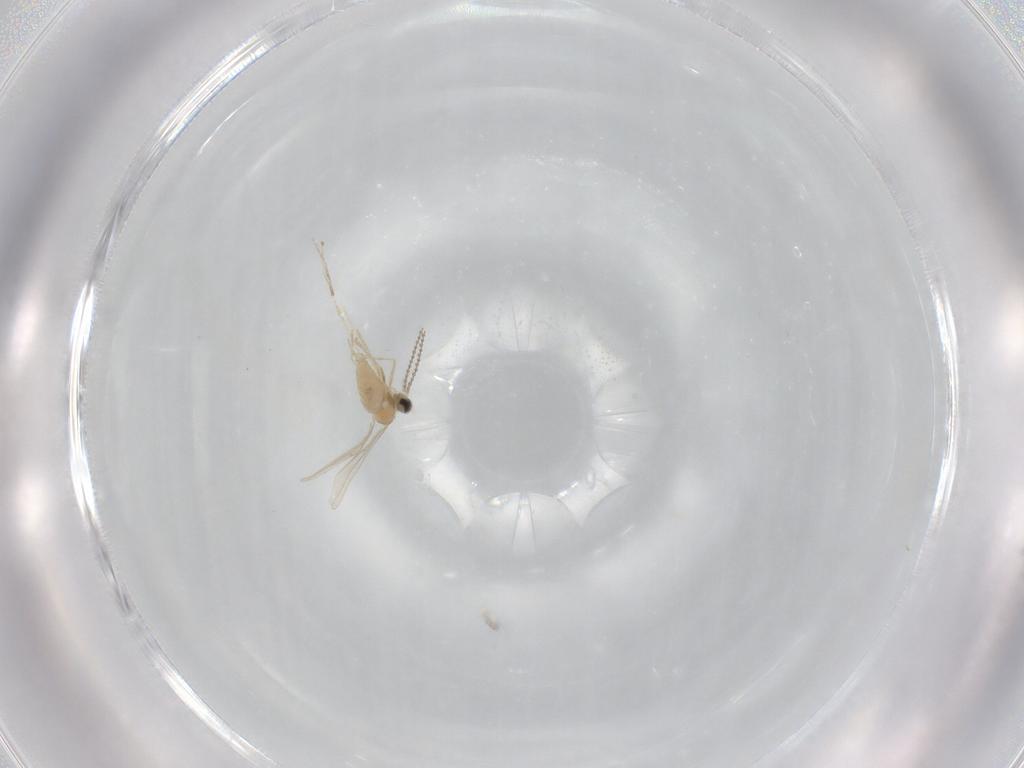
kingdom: Animalia
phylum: Arthropoda
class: Insecta
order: Diptera
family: Cecidomyiidae
